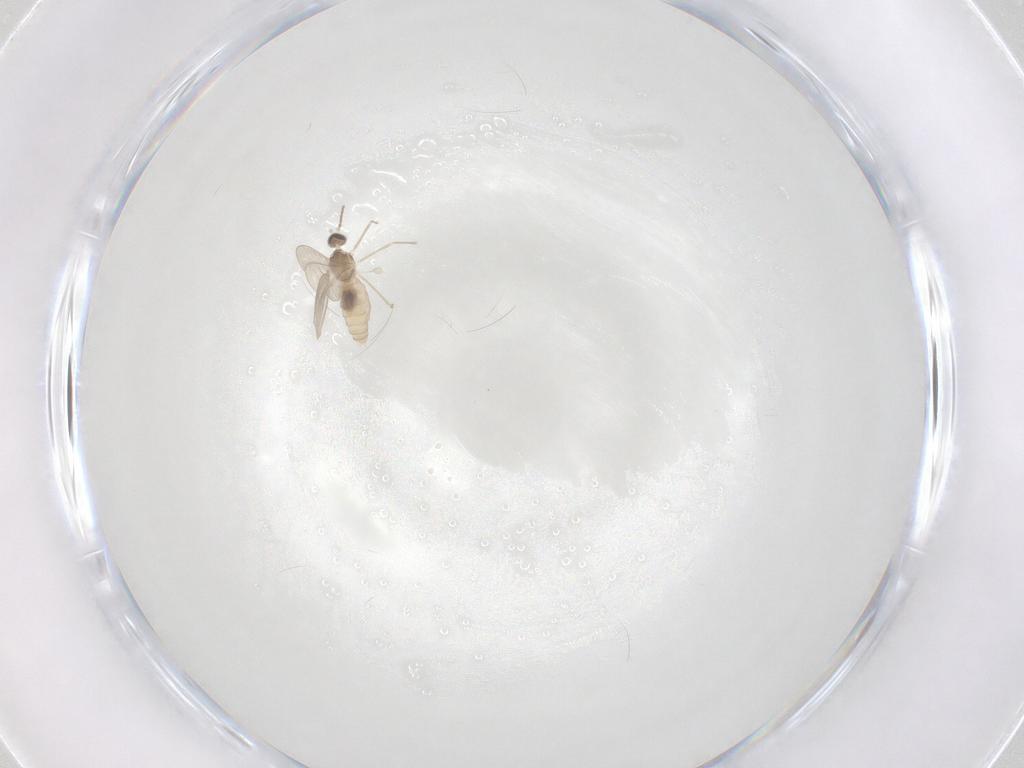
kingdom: Animalia
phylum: Arthropoda
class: Insecta
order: Diptera
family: Cecidomyiidae
